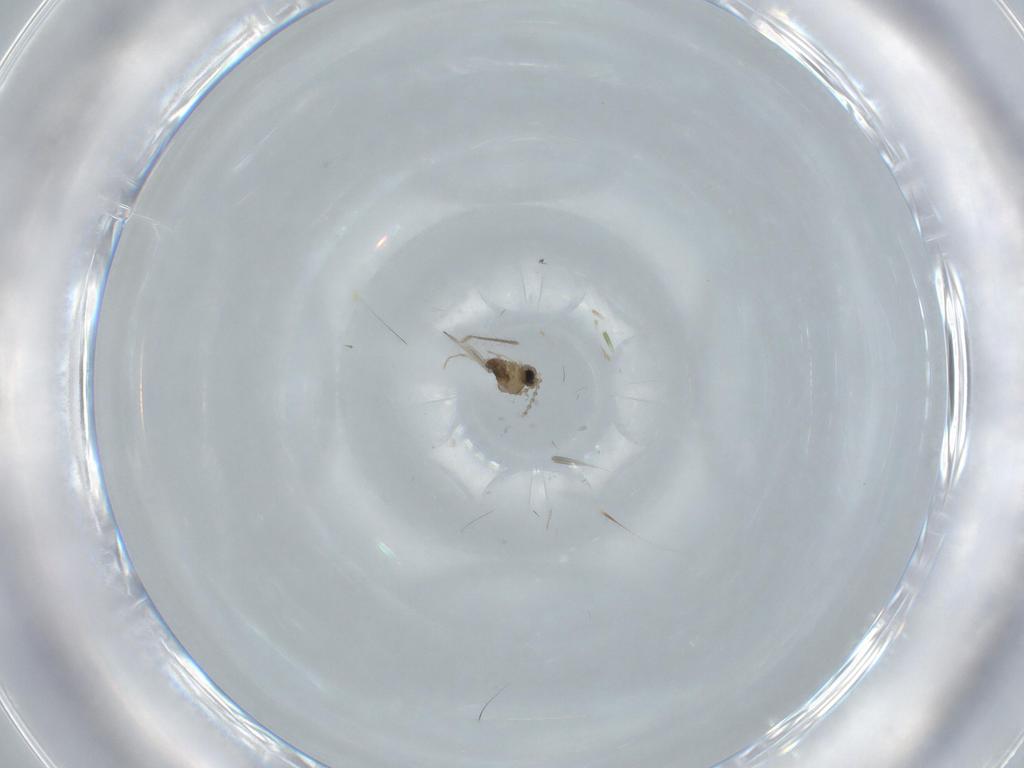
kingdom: Animalia
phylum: Arthropoda
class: Insecta
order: Diptera
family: Cecidomyiidae
